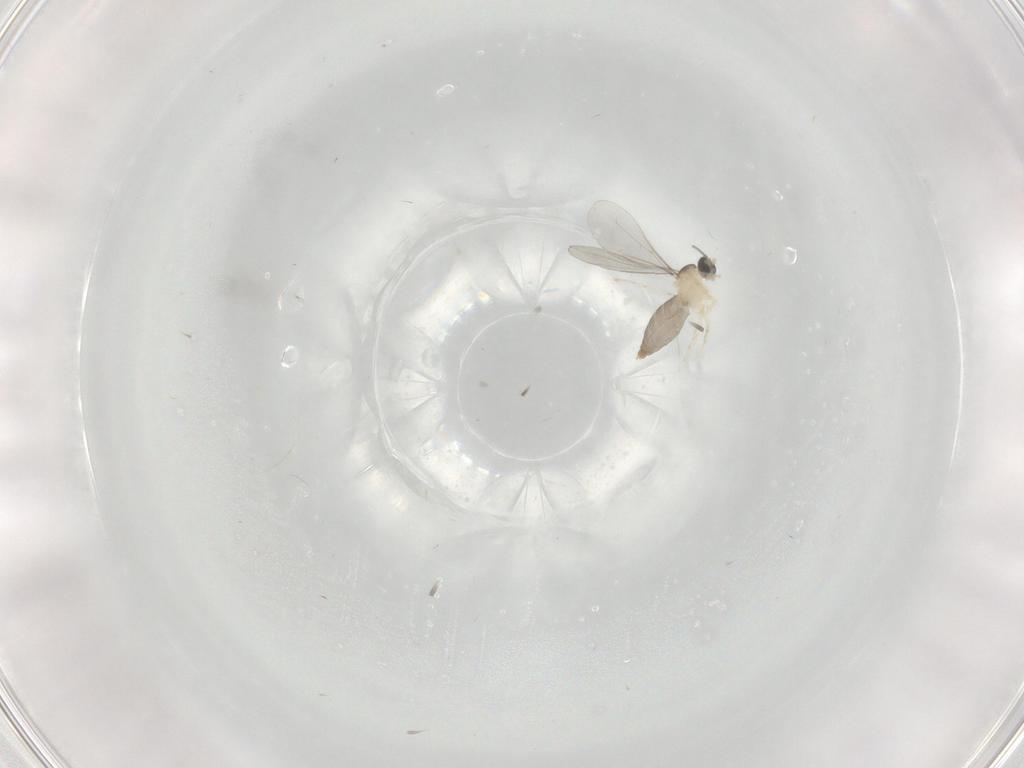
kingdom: Animalia
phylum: Arthropoda
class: Insecta
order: Diptera
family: Cecidomyiidae
